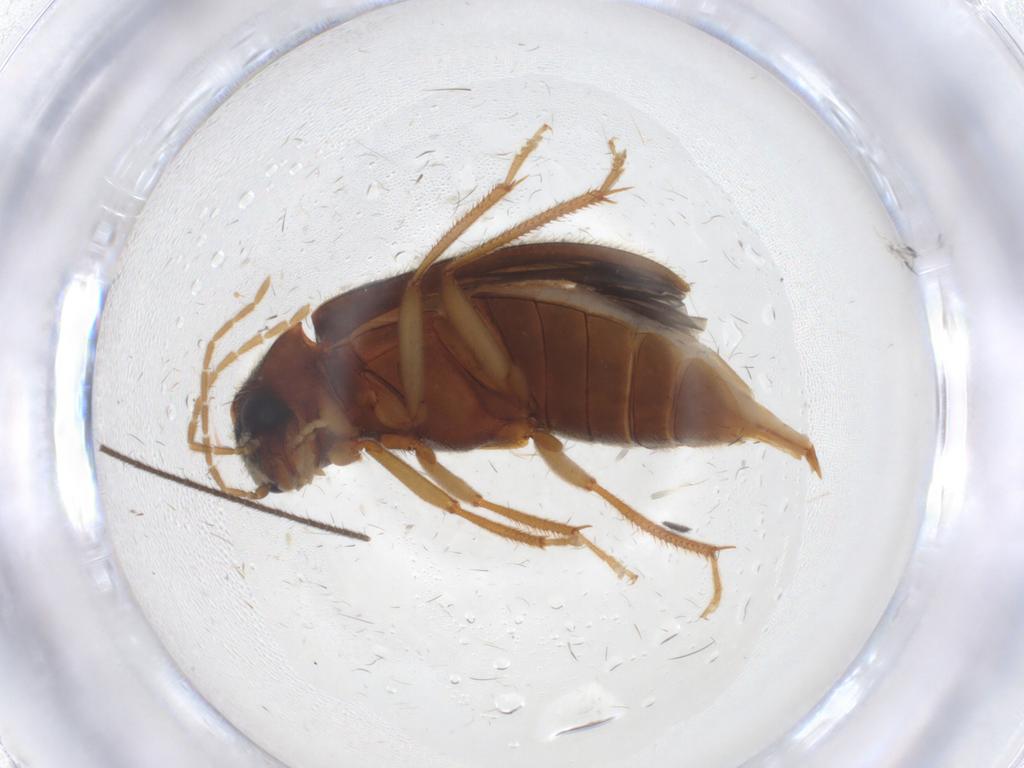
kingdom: Animalia
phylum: Arthropoda
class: Insecta
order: Coleoptera
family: Ptilodactylidae
